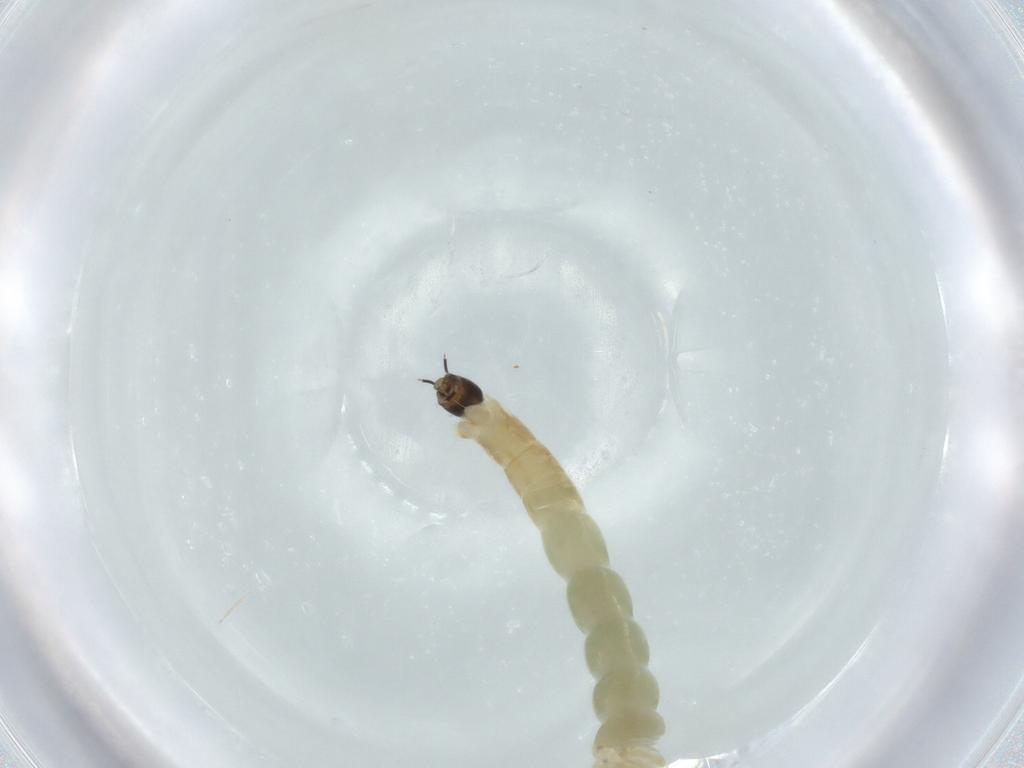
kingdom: Animalia
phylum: Arthropoda
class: Insecta
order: Diptera
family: Chironomidae
